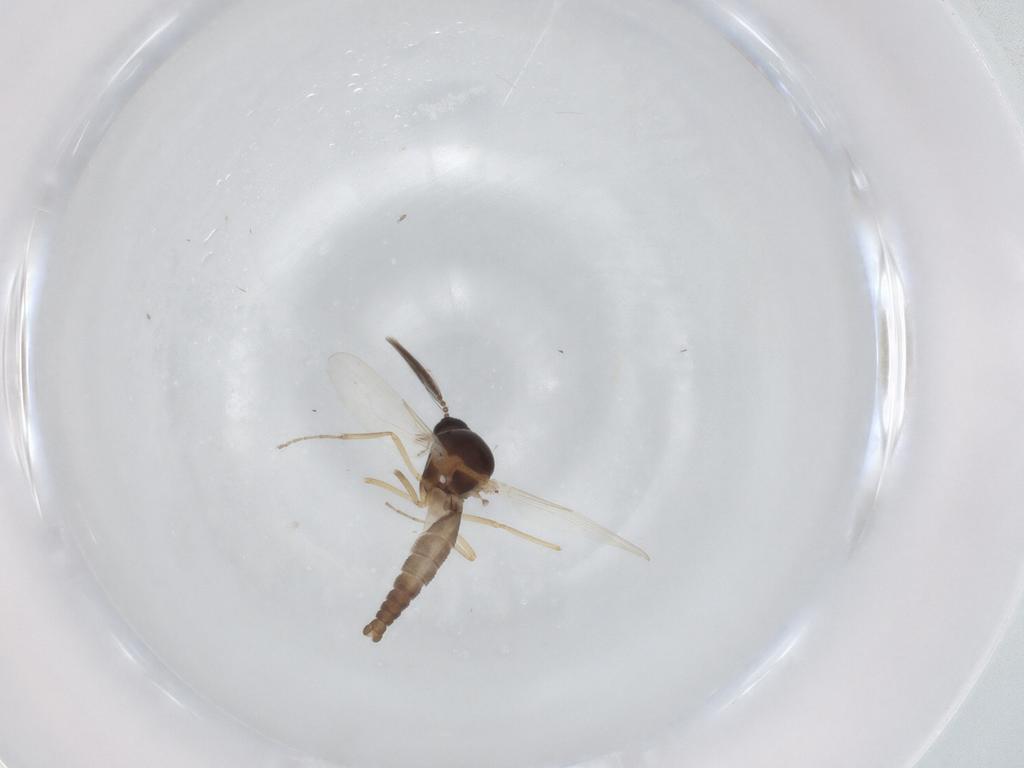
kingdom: Animalia
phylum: Arthropoda
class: Insecta
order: Diptera
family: Ceratopogonidae
